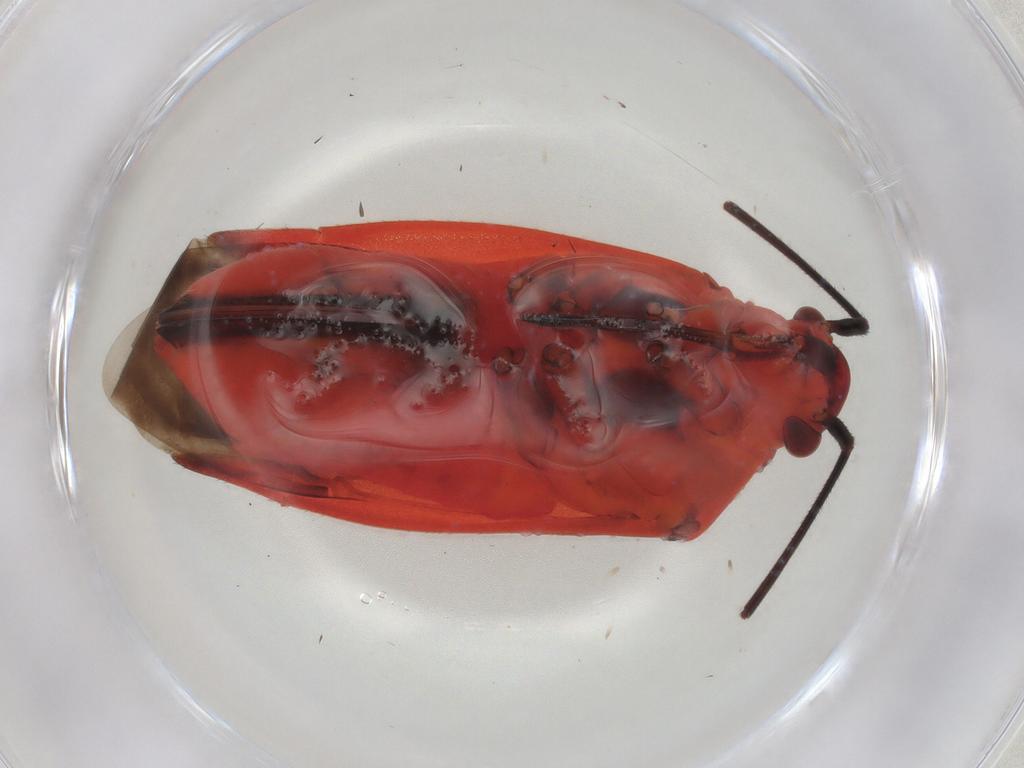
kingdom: Animalia
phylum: Arthropoda
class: Insecta
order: Hemiptera
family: Miridae
